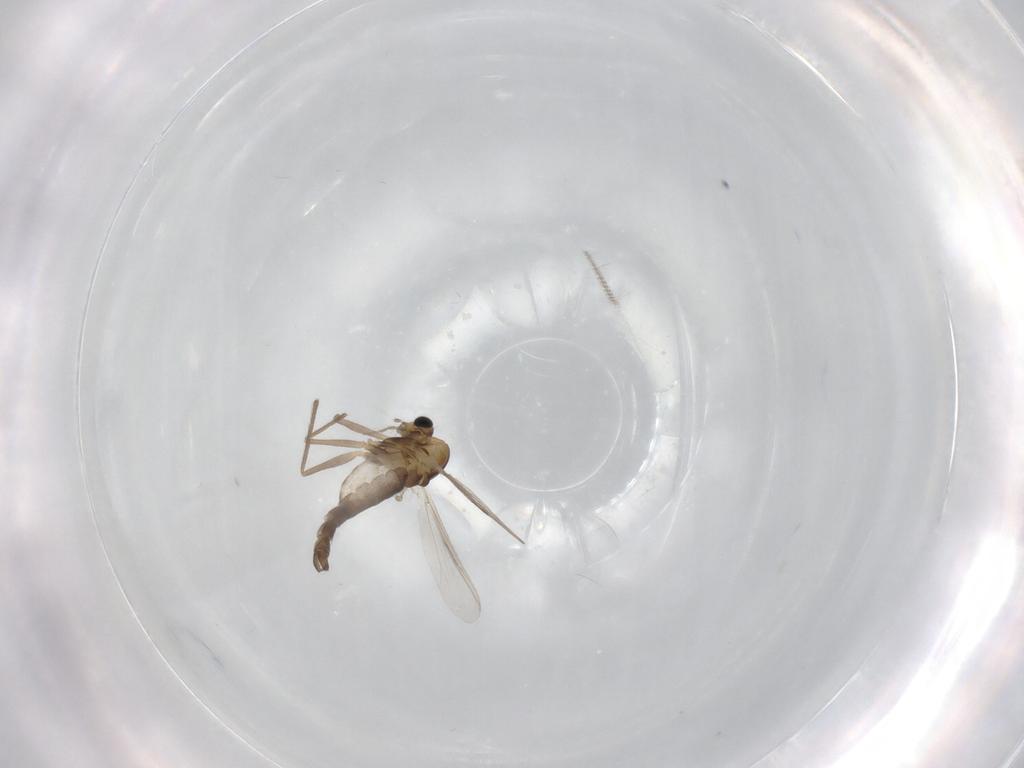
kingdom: Animalia
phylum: Arthropoda
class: Insecta
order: Diptera
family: Chironomidae
